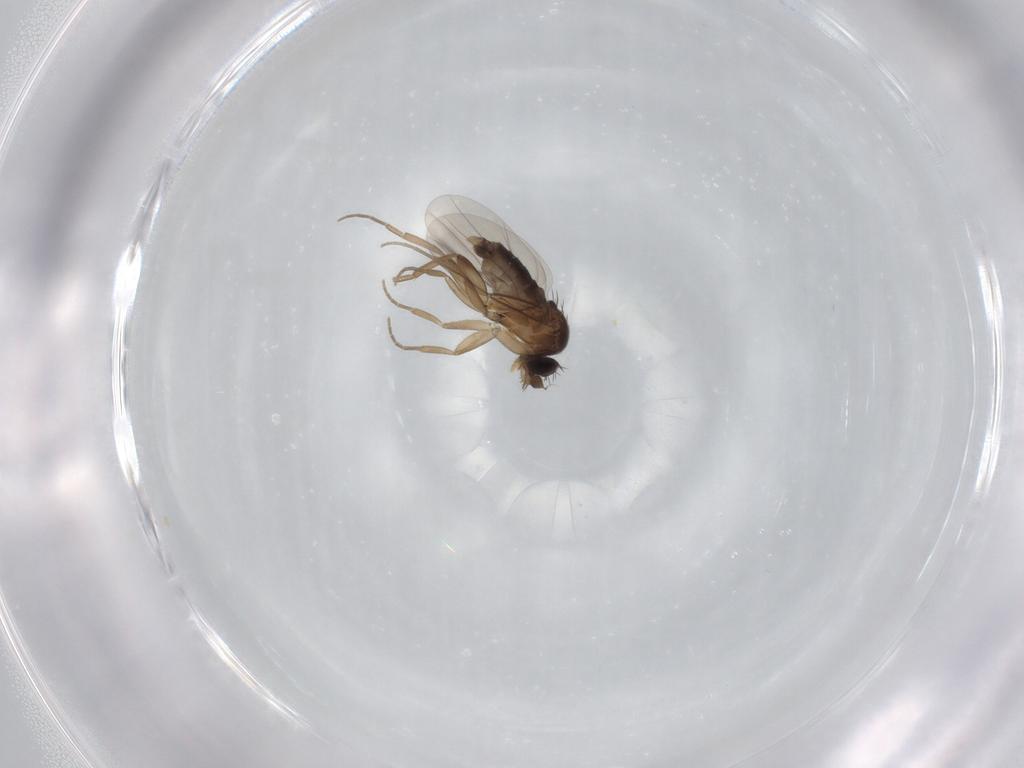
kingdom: Animalia
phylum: Arthropoda
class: Insecta
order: Diptera
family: Phoridae
